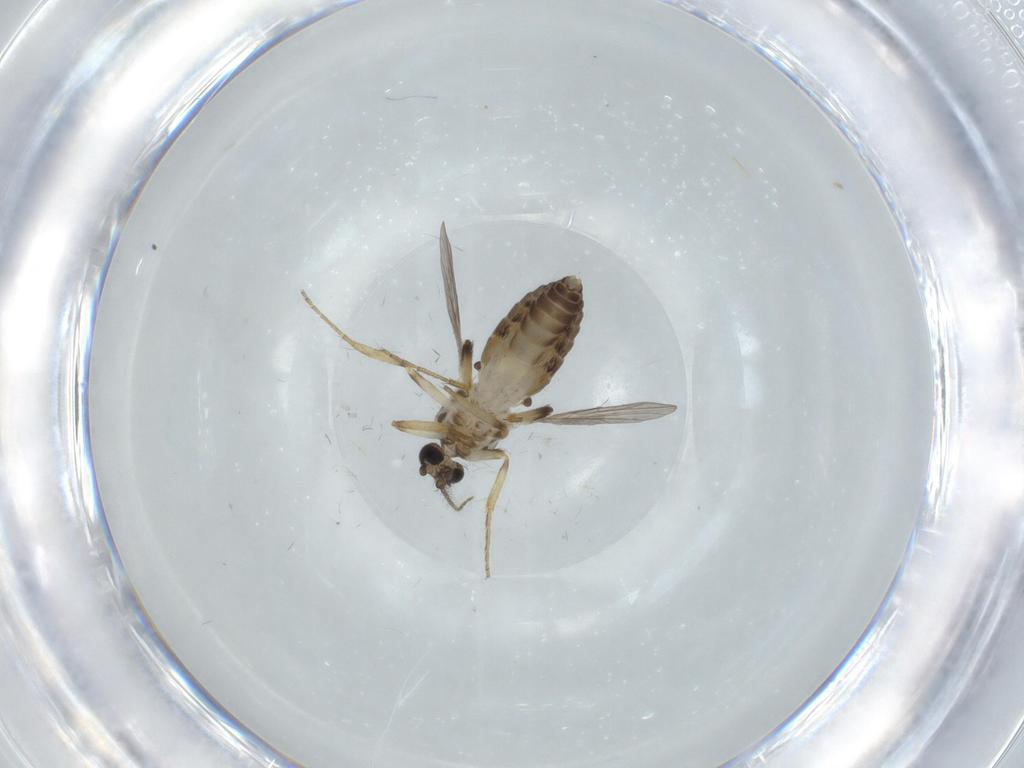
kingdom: Animalia
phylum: Arthropoda
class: Insecta
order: Diptera
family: Ceratopogonidae
